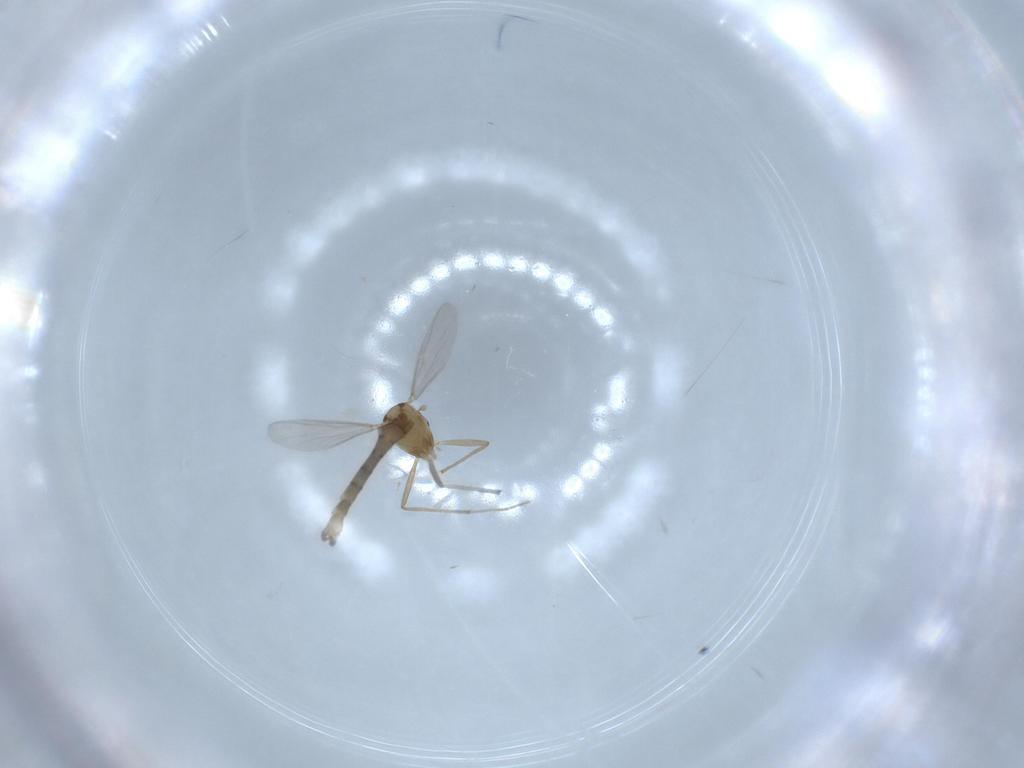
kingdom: Animalia
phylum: Arthropoda
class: Insecta
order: Diptera
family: Chironomidae
